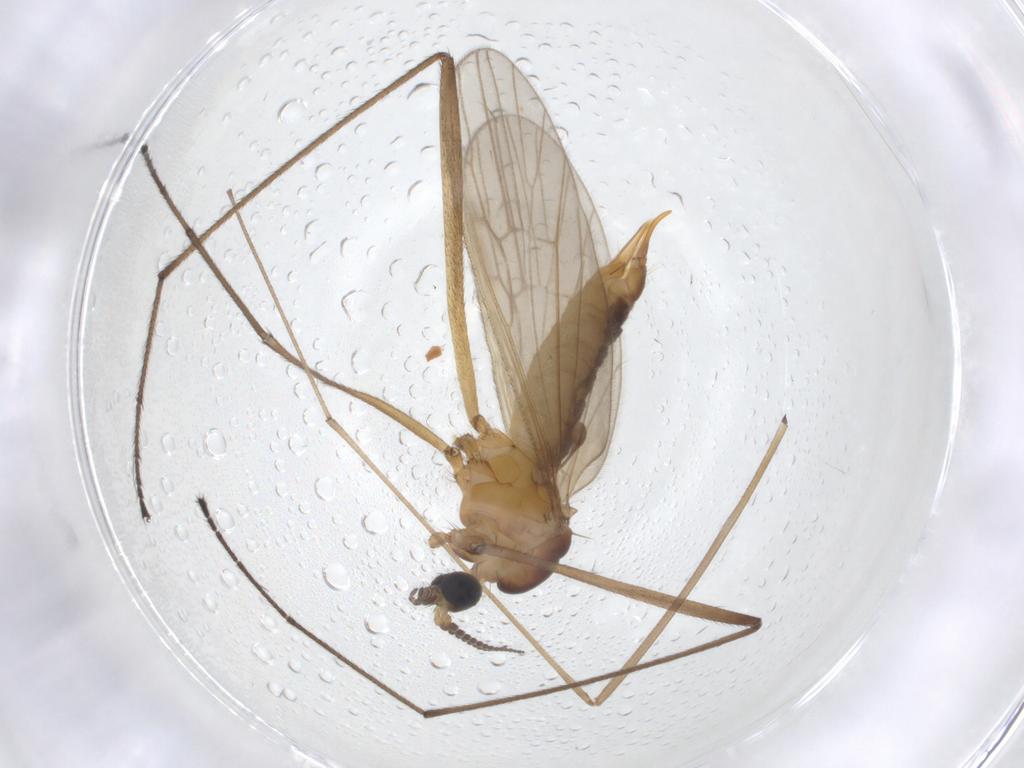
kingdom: Animalia
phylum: Arthropoda
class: Insecta
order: Diptera
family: Limoniidae
